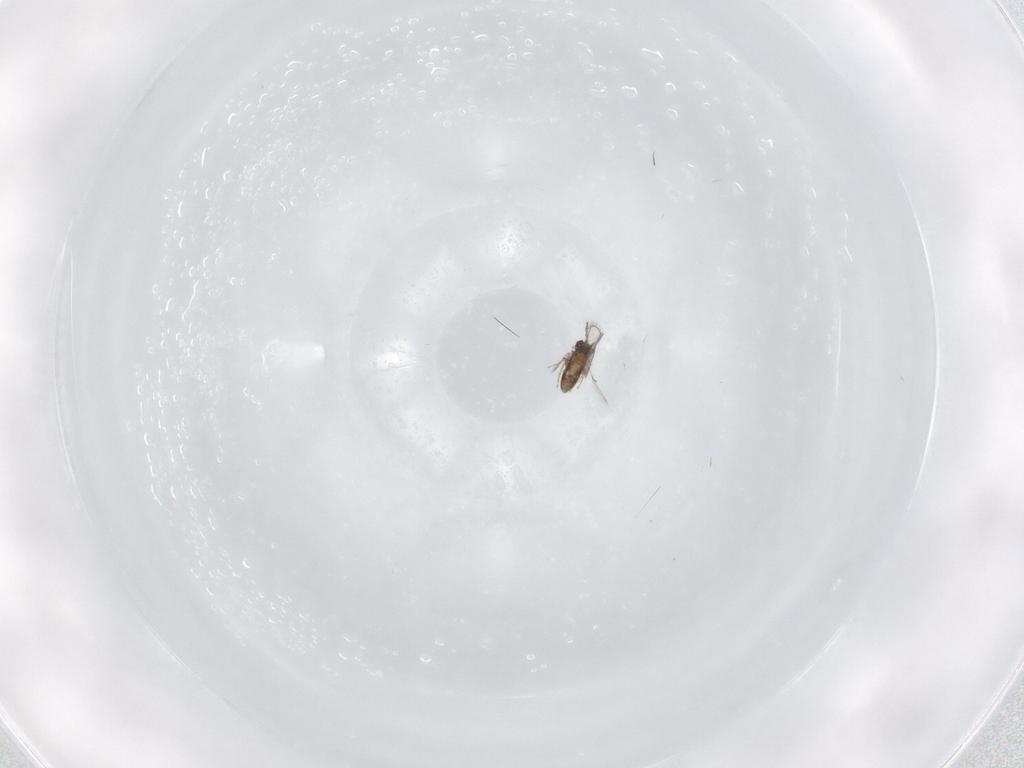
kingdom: Animalia
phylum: Arthropoda
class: Insecta
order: Hymenoptera
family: Trichogrammatidae
